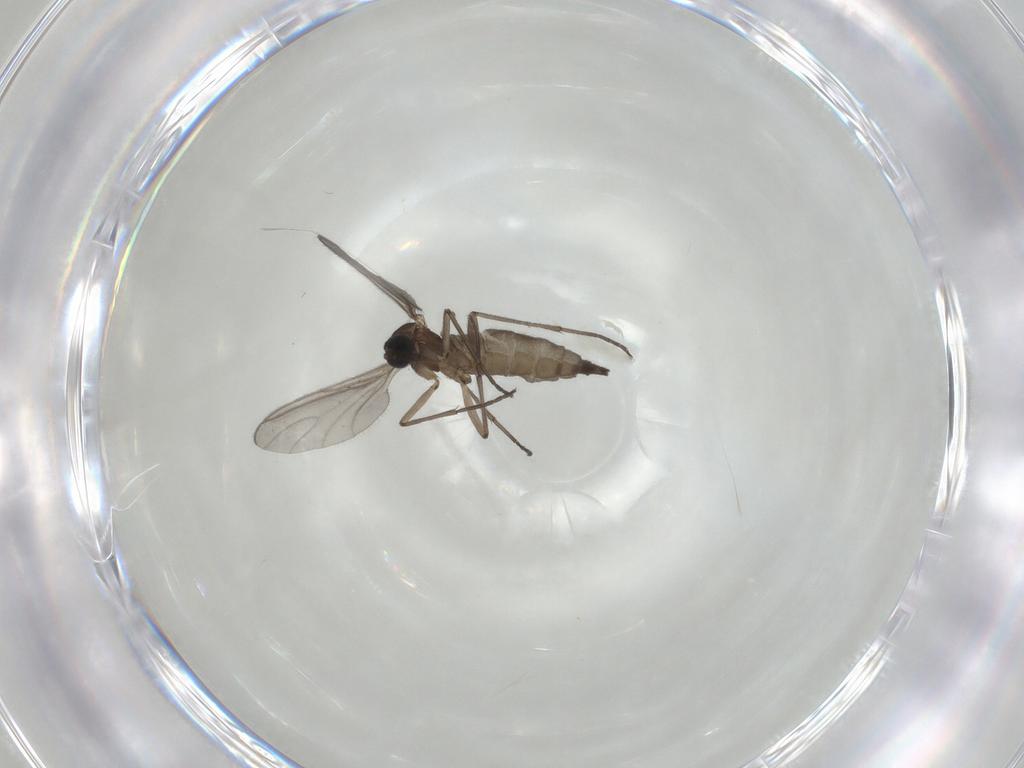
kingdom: Animalia
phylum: Arthropoda
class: Insecta
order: Diptera
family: Sciaridae
